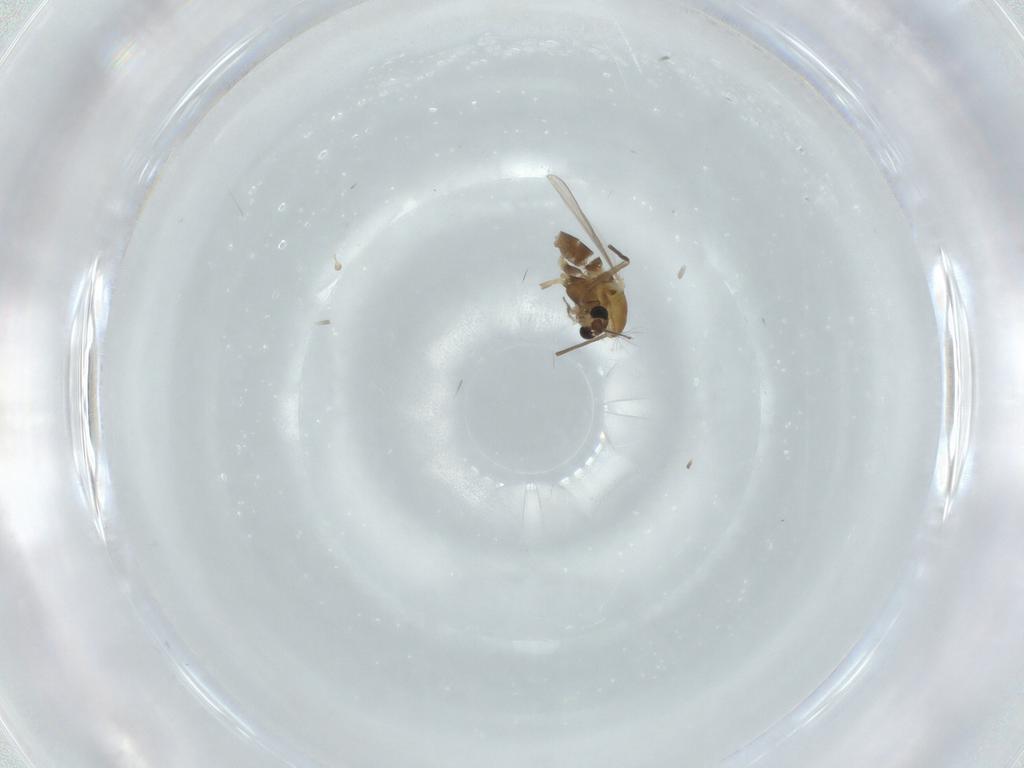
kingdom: Animalia
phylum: Arthropoda
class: Insecta
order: Diptera
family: Chironomidae
